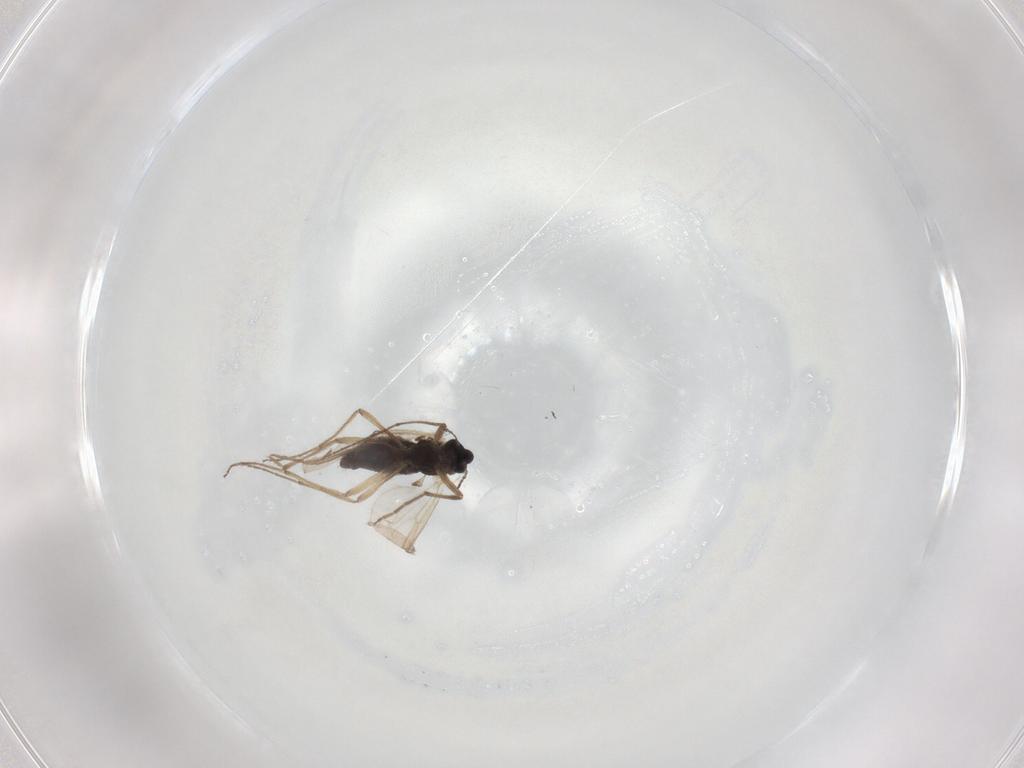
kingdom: Animalia
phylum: Arthropoda
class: Insecta
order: Diptera
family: Chironomidae
